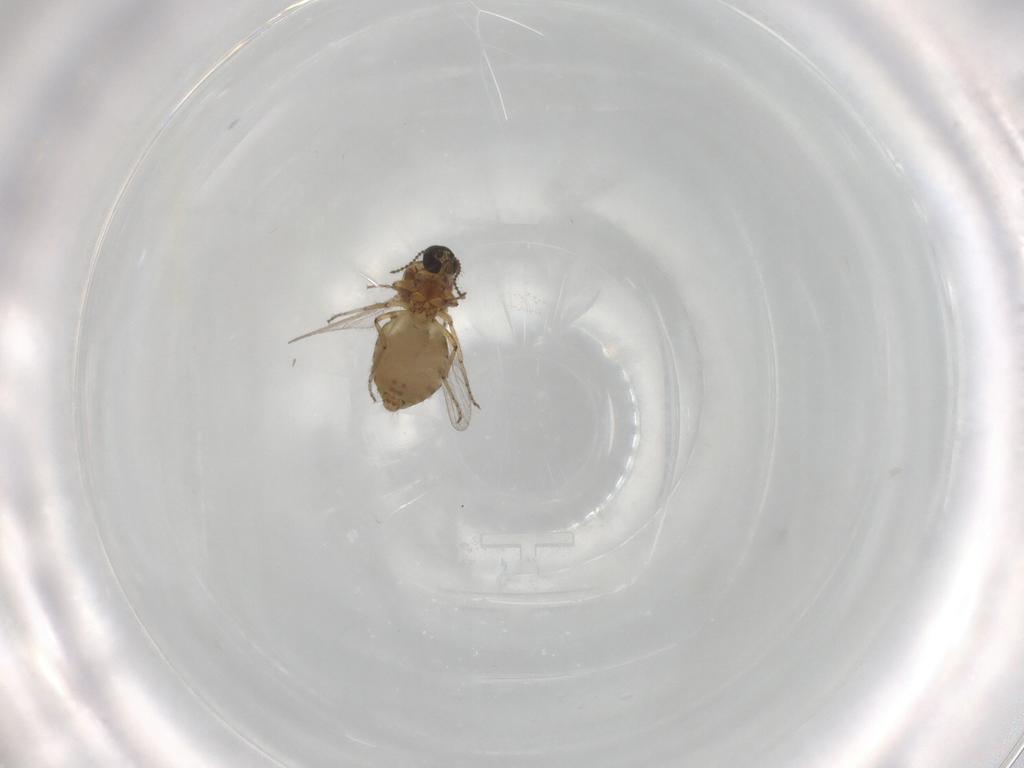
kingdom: Animalia
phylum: Arthropoda
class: Insecta
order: Diptera
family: Ceratopogonidae
